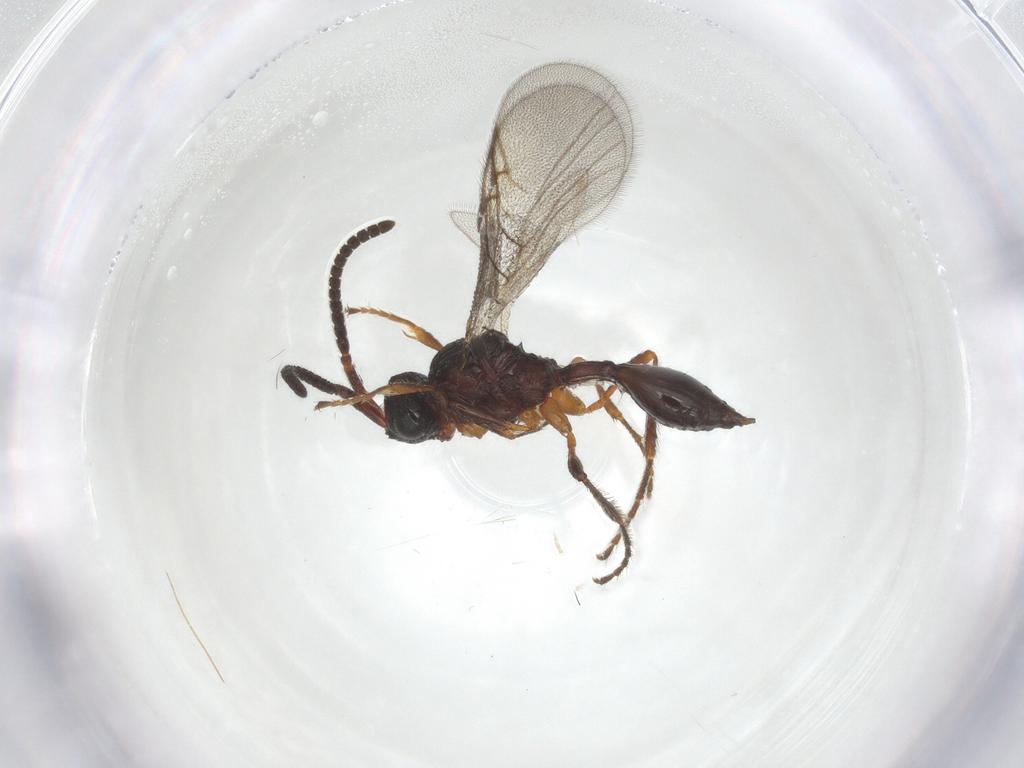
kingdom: Animalia
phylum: Arthropoda
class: Insecta
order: Hymenoptera
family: Diapriidae
